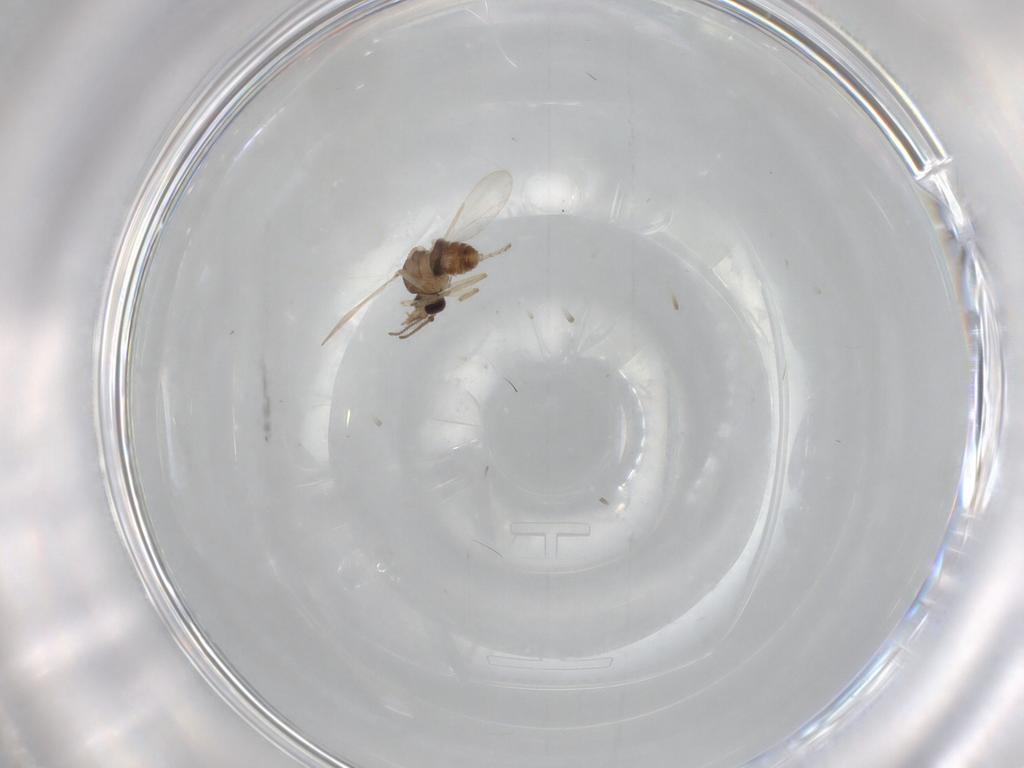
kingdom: Animalia
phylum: Arthropoda
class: Insecta
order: Diptera
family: Ceratopogonidae
